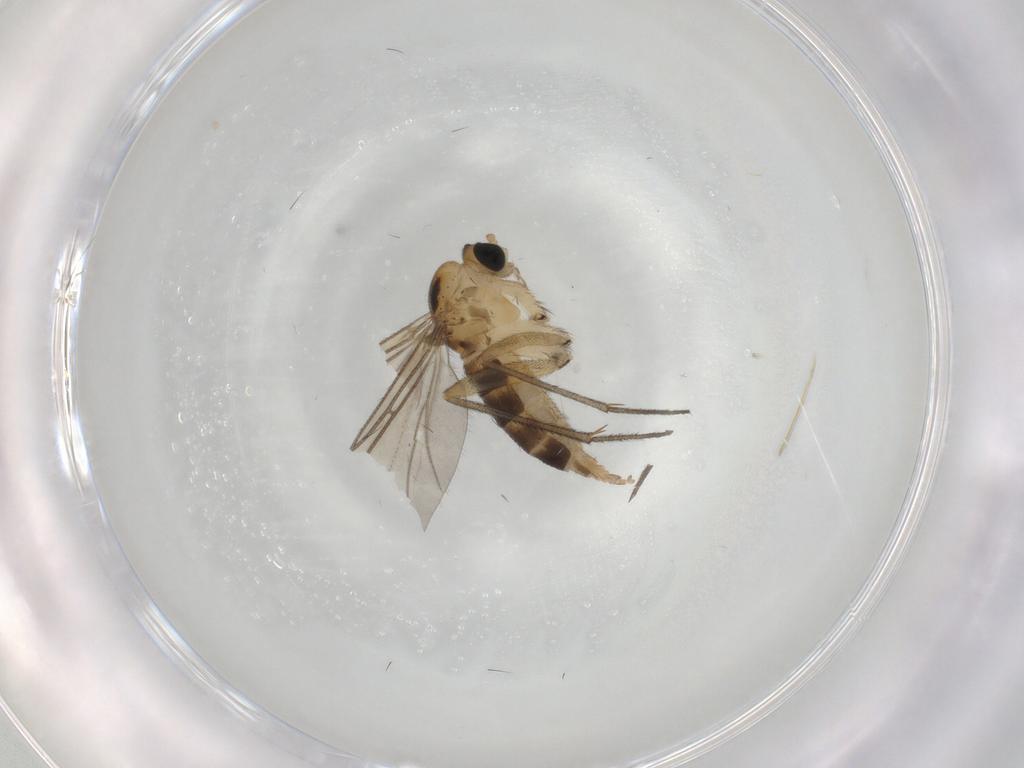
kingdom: Animalia
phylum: Arthropoda
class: Insecta
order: Diptera
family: Sciaridae
